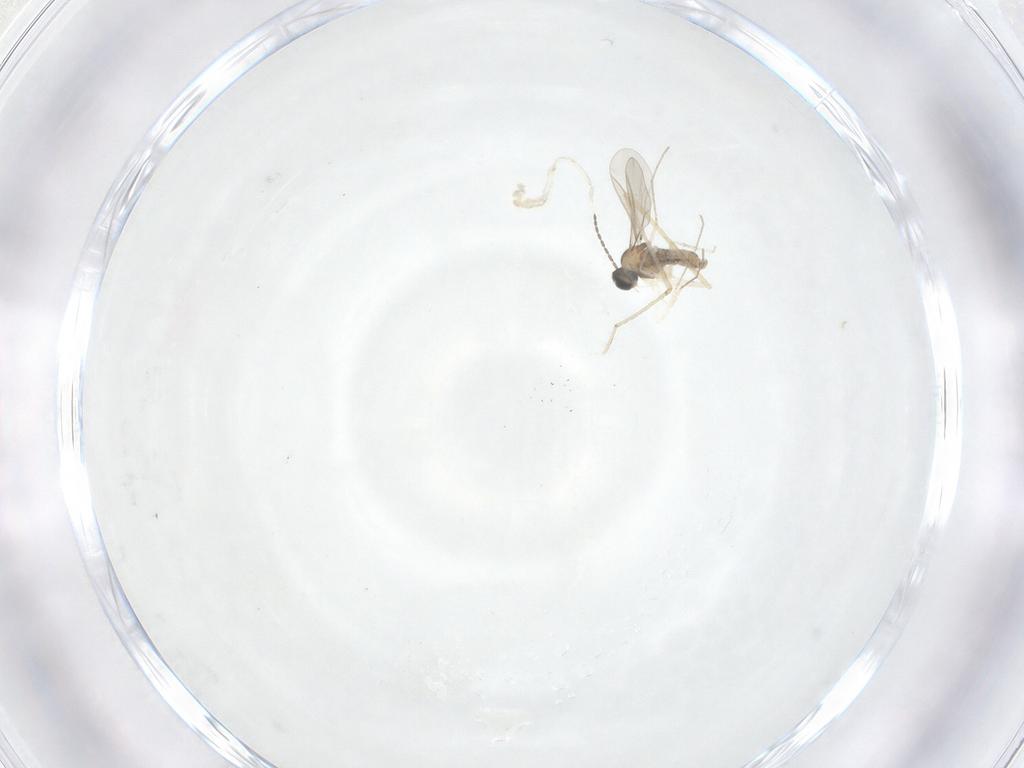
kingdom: Animalia
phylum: Arthropoda
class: Insecta
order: Diptera
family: Cecidomyiidae
